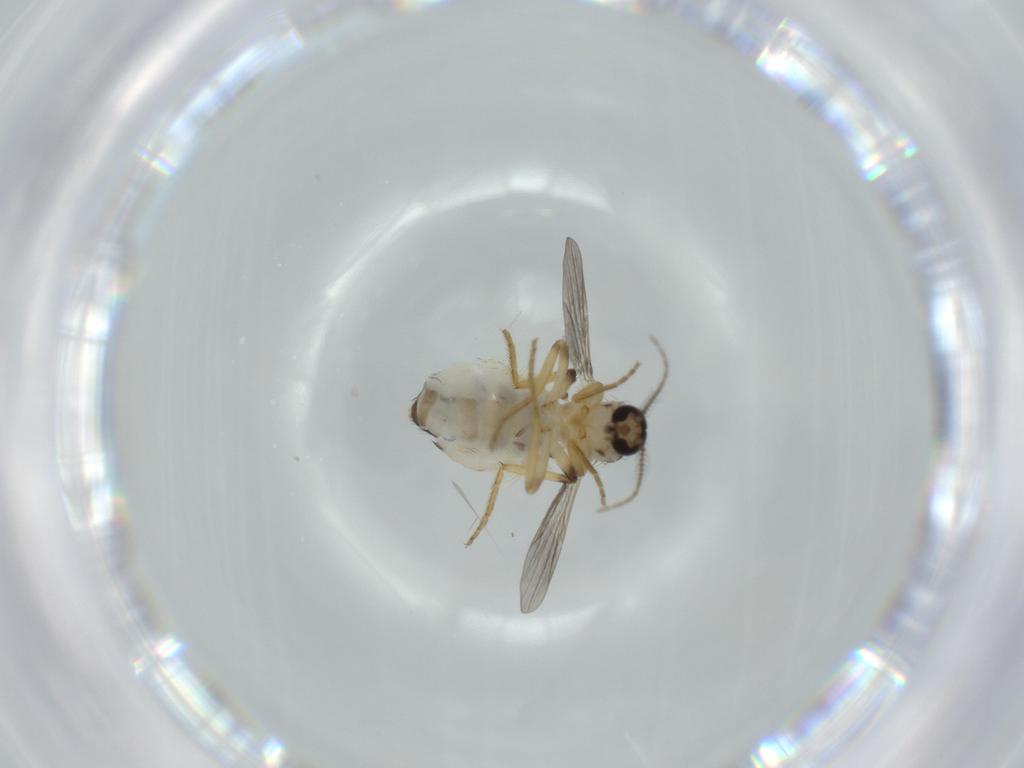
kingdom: Animalia
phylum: Arthropoda
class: Insecta
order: Diptera
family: Ceratopogonidae
